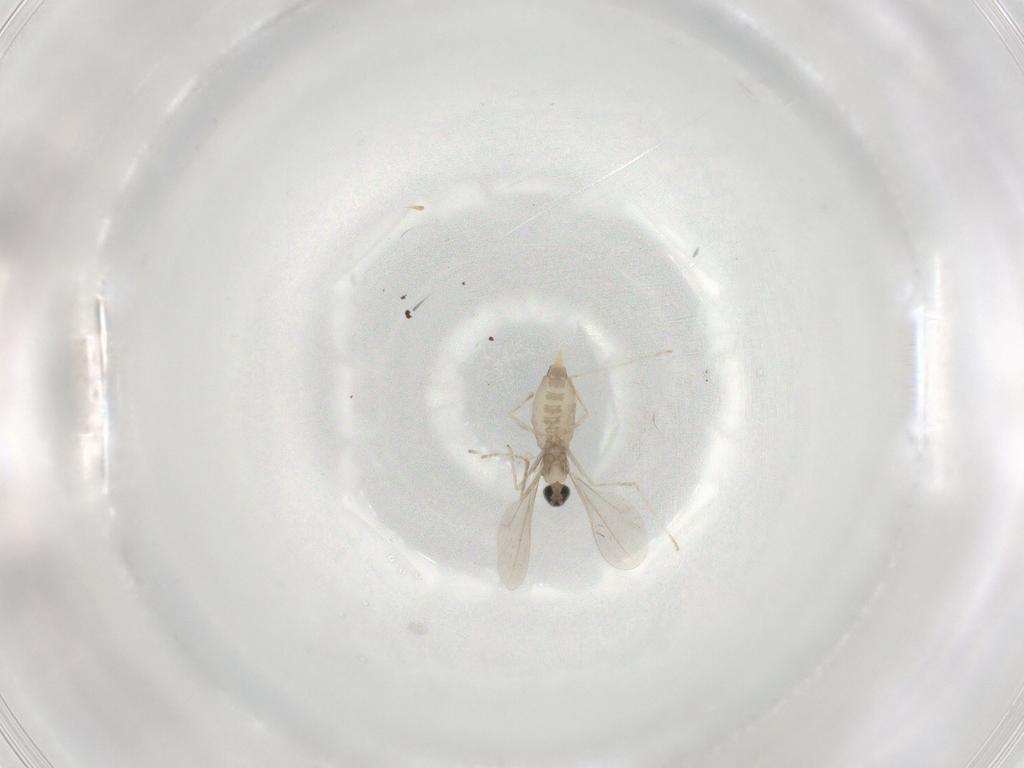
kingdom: Animalia
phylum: Arthropoda
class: Insecta
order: Diptera
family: Cecidomyiidae
